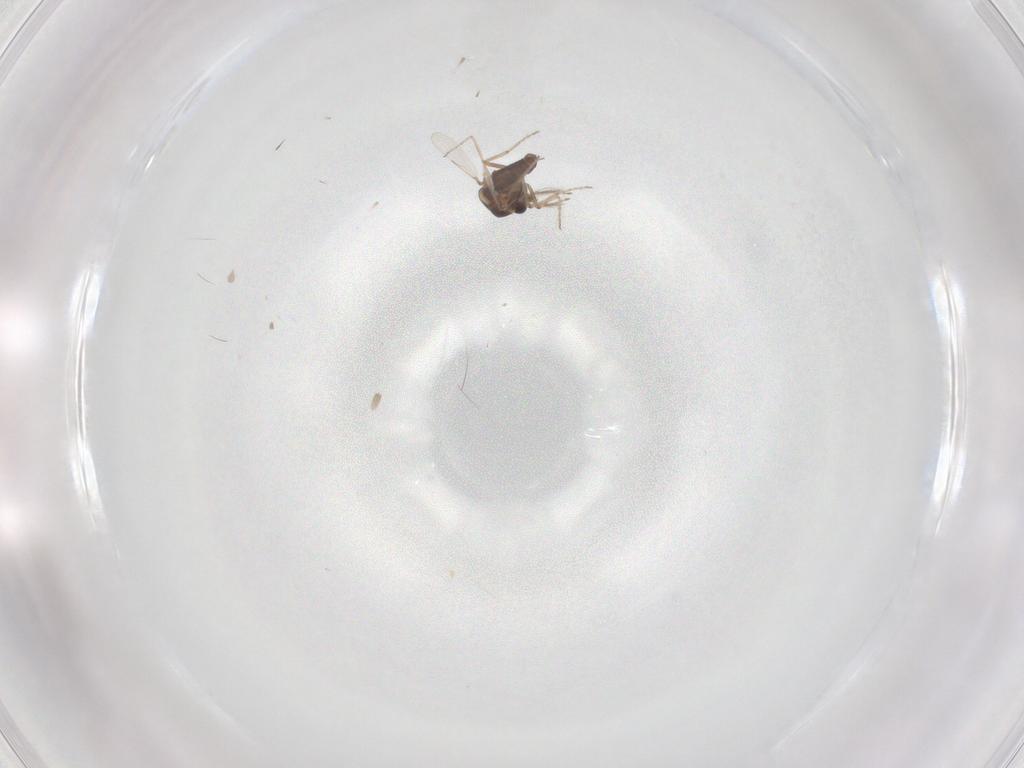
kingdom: Animalia
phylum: Arthropoda
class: Insecta
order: Diptera
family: Ceratopogonidae
